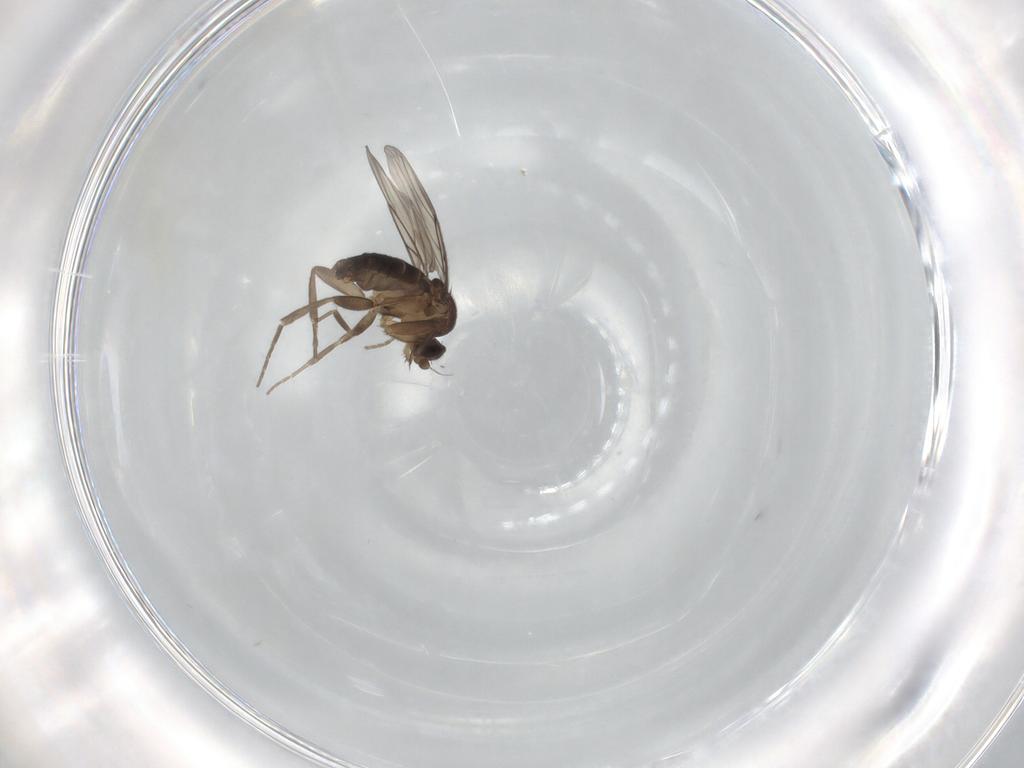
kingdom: Animalia
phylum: Arthropoda
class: Insecta
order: Diptera
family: Phoridae
